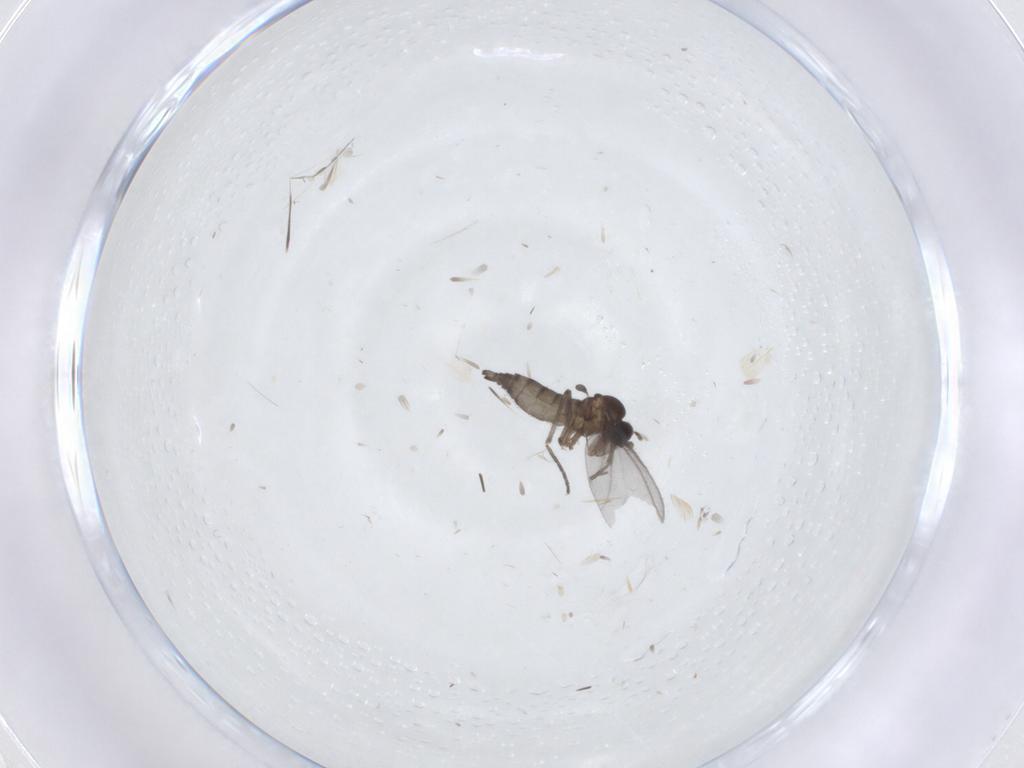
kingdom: Animalia
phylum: Arthropoda
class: Insecta
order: Diptera
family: Sciaridae
